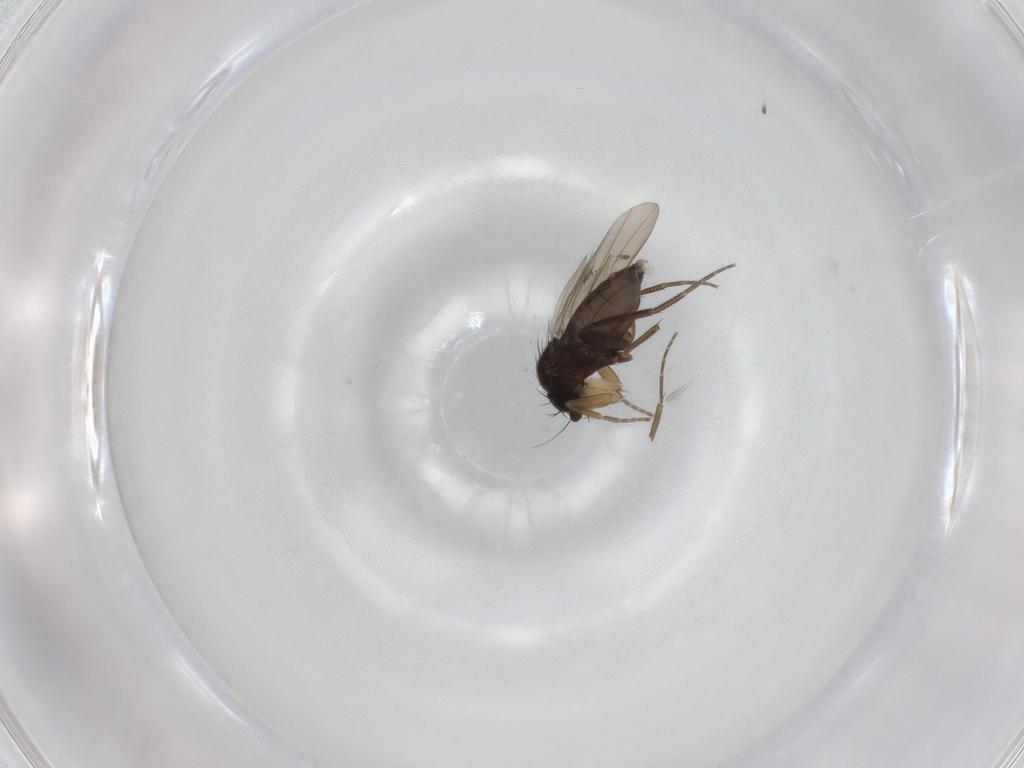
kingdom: Animalia
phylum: Arthropoda
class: Insecta
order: Diptera
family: Phoridae
